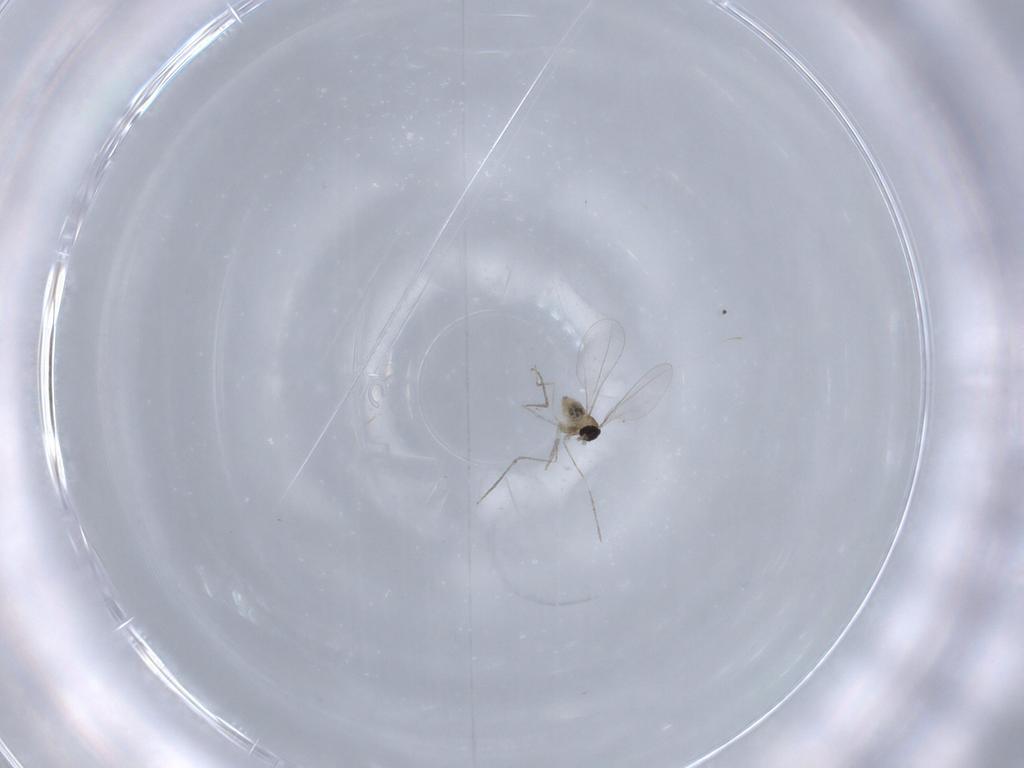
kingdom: Animalia
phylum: Arthropoda
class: Insecta
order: Diptera
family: Cecidomyiidae
